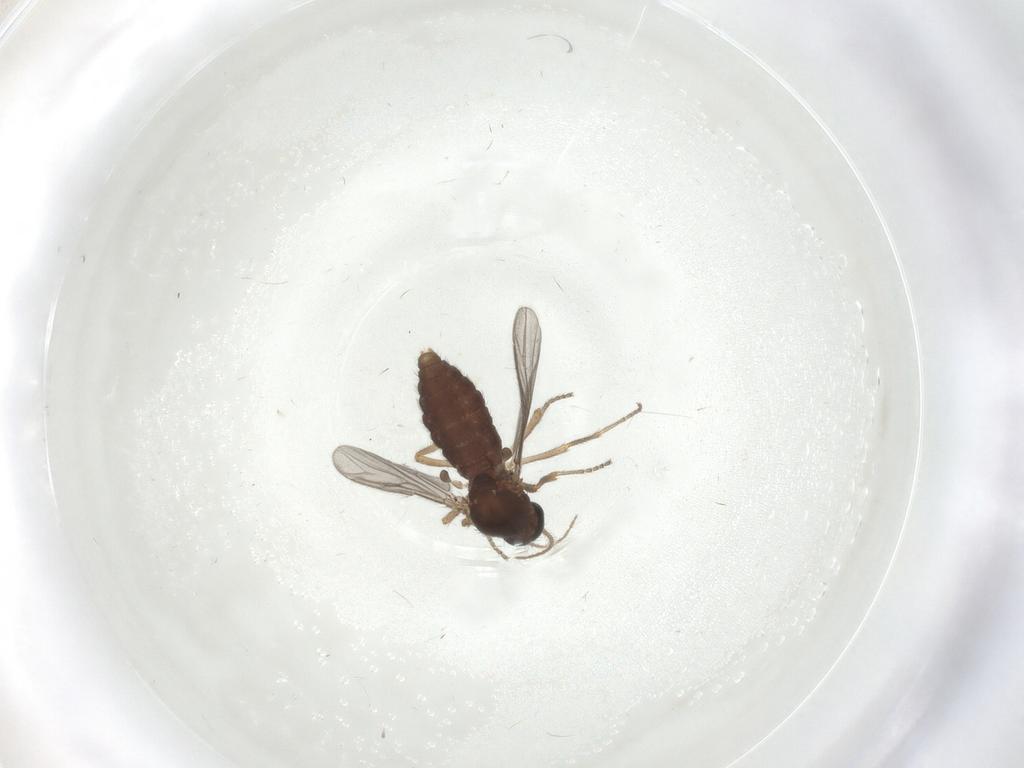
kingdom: Animalia
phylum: Arthropoda
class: Insecta
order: Diptera
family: Ceratopogonidae
